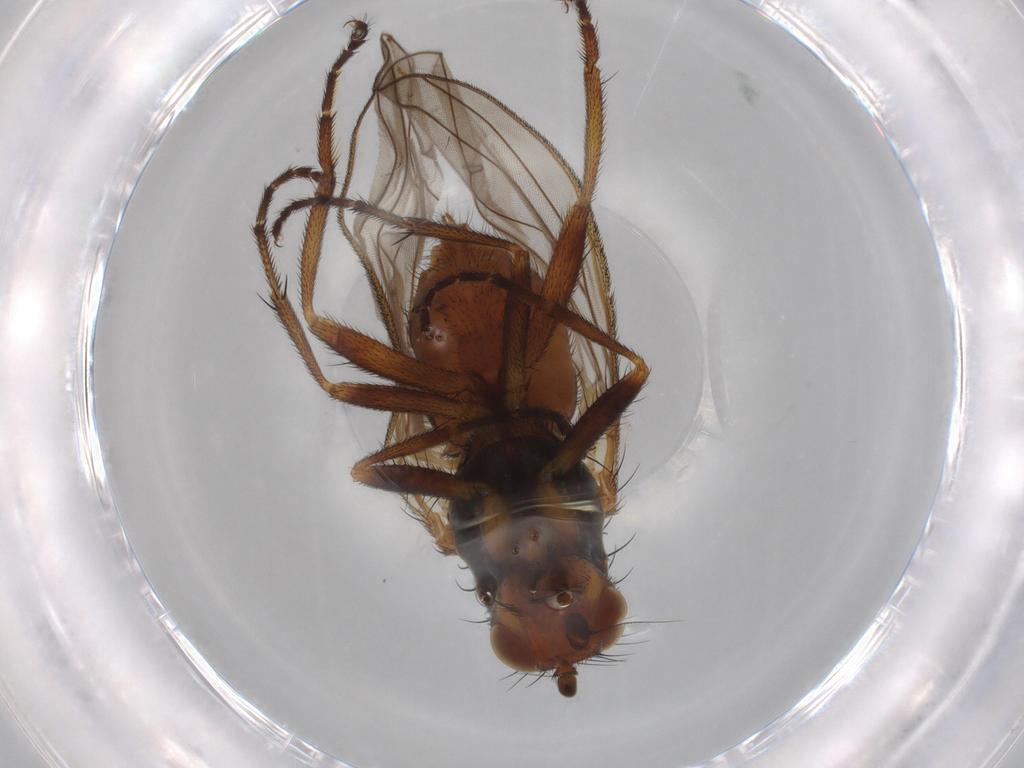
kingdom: Animalia
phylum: Arthropoda
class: Insecta
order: Diptera
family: Heleomyzidae
